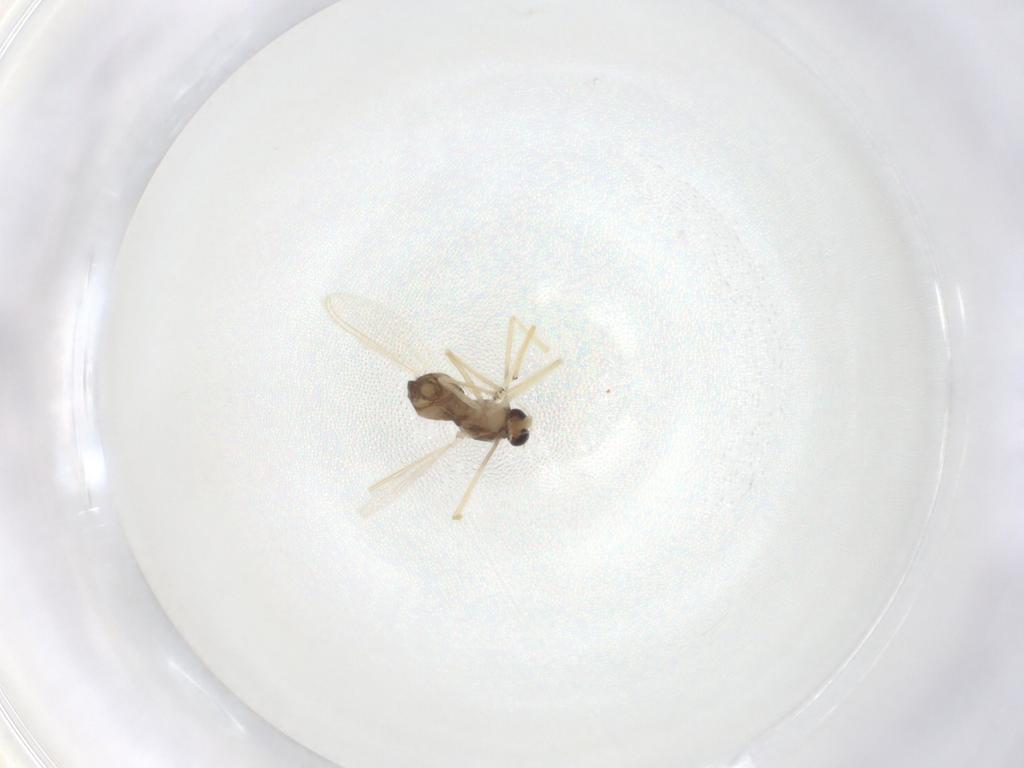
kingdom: Animalia
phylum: Arthropoda
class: Insecta
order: Diptera
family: Chironomidae
